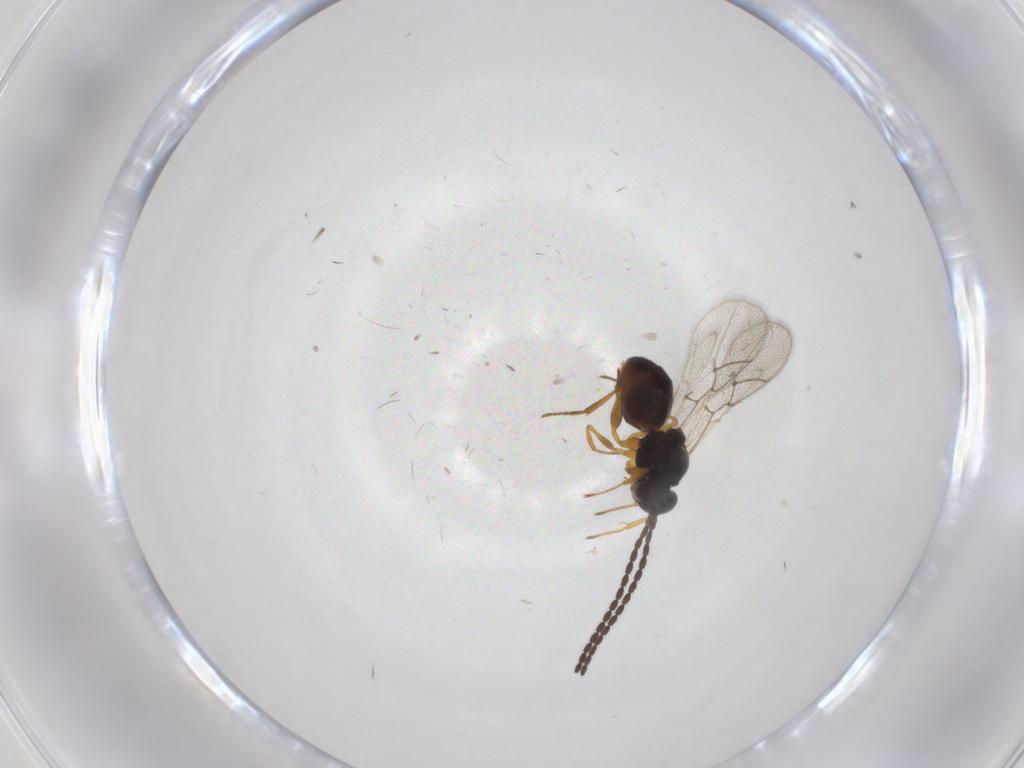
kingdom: Animalia
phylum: Arthropoda
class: Insecta
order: Hymenoptera
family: Figitidae
